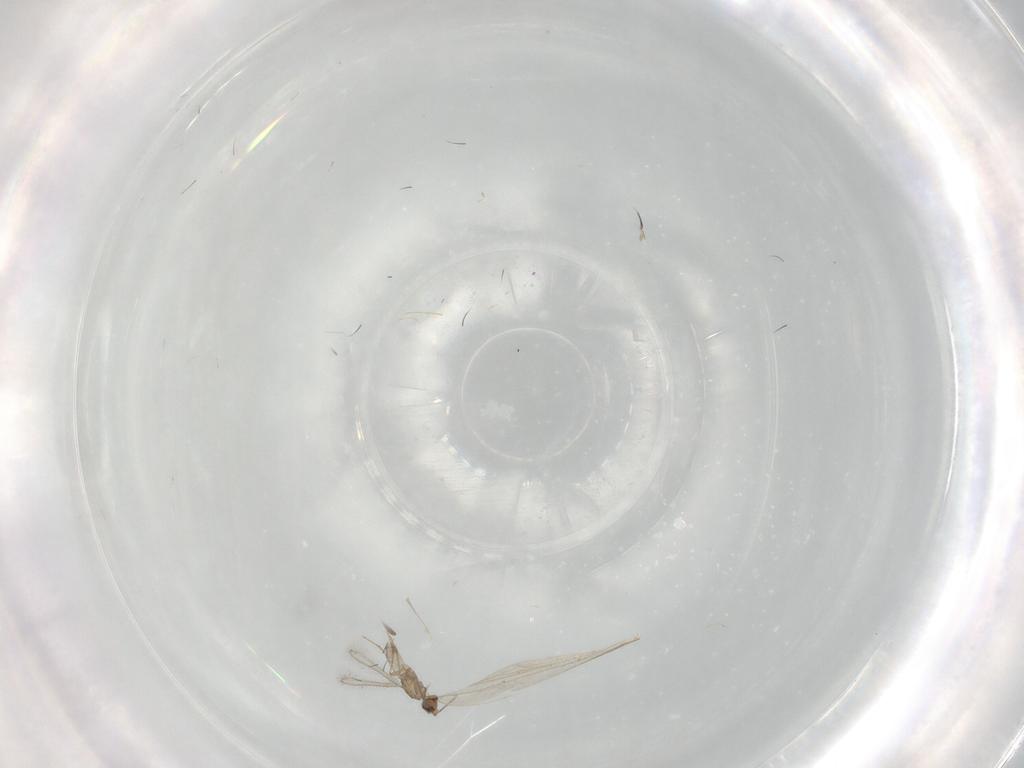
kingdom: Animalia
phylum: Arthropoda
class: Insecta
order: Hymenoptera
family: Mymaridae
